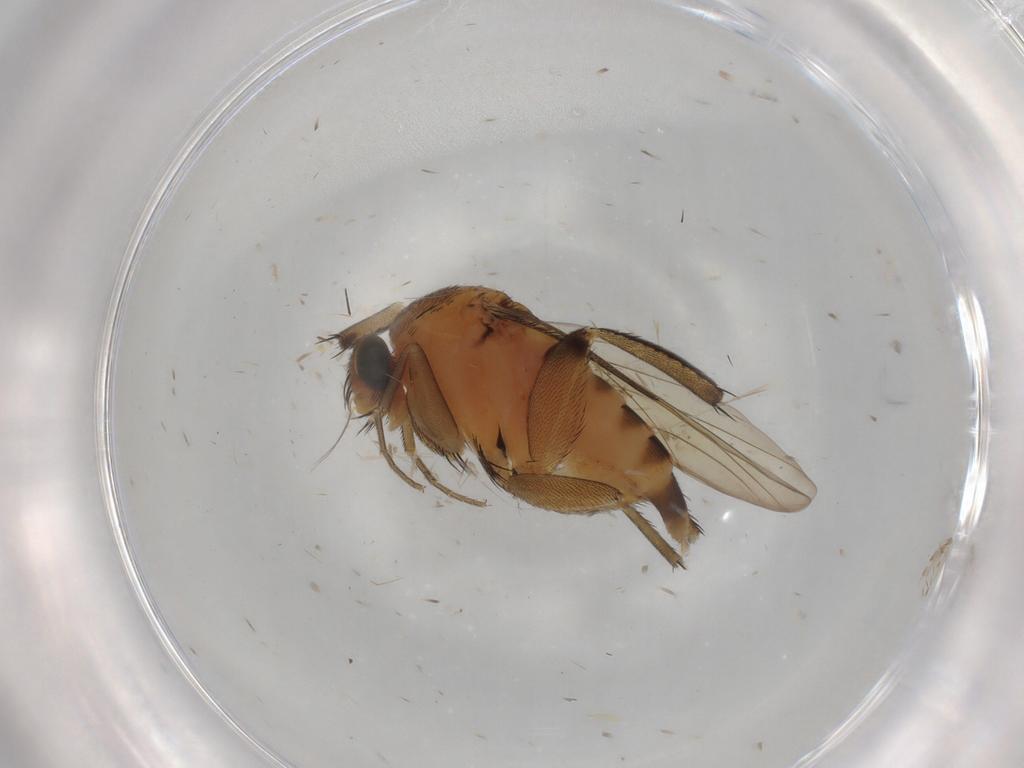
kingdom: Animalia
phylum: Arthropoda
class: Insecta
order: Diptera
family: Phoridae
